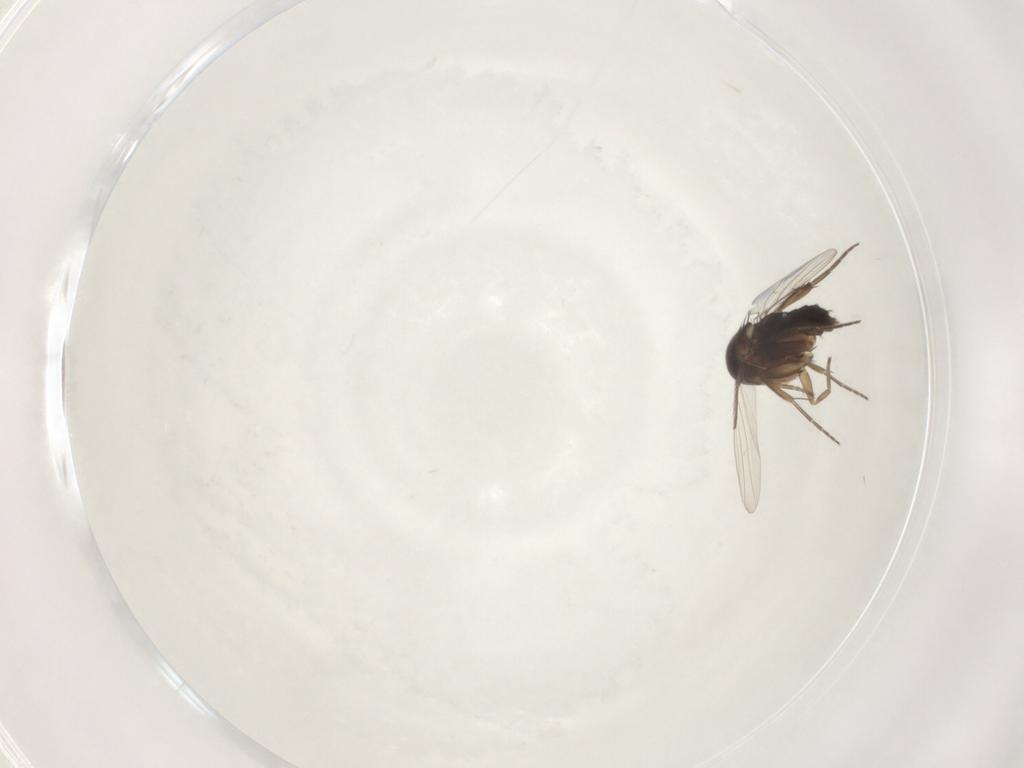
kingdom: Animalia
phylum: Arthropoda
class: Insecta
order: Diptera
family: Phoridae
